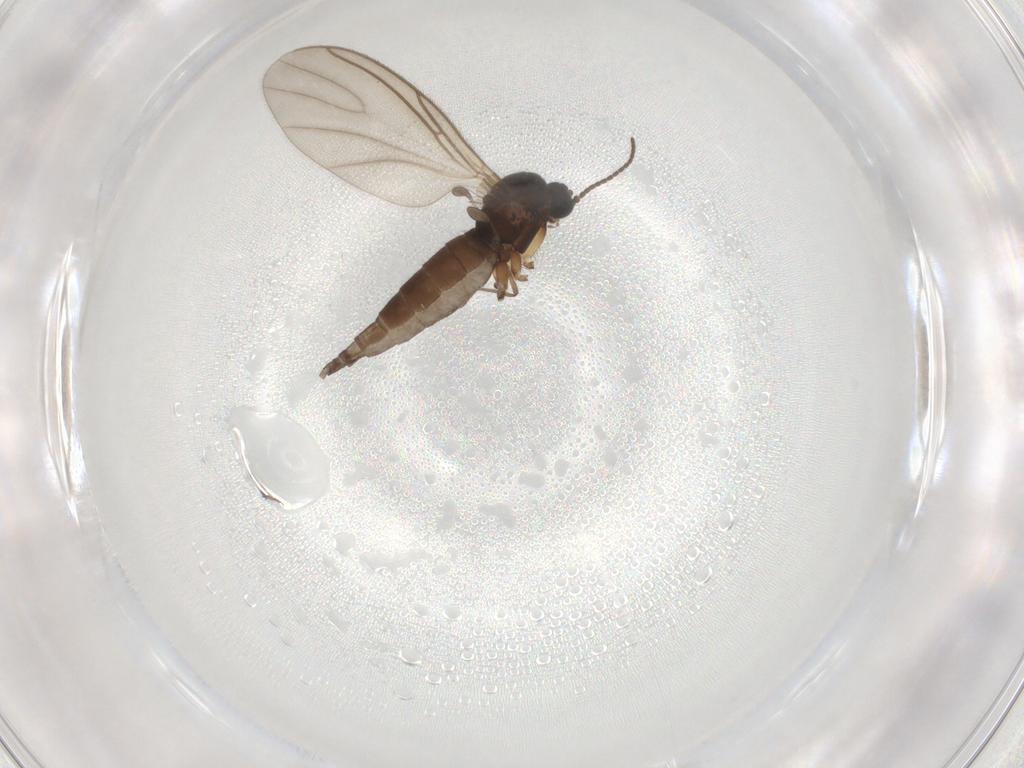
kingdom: Animalia
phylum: Arthropoda
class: Insecta
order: Diptera
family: Sciaridae
